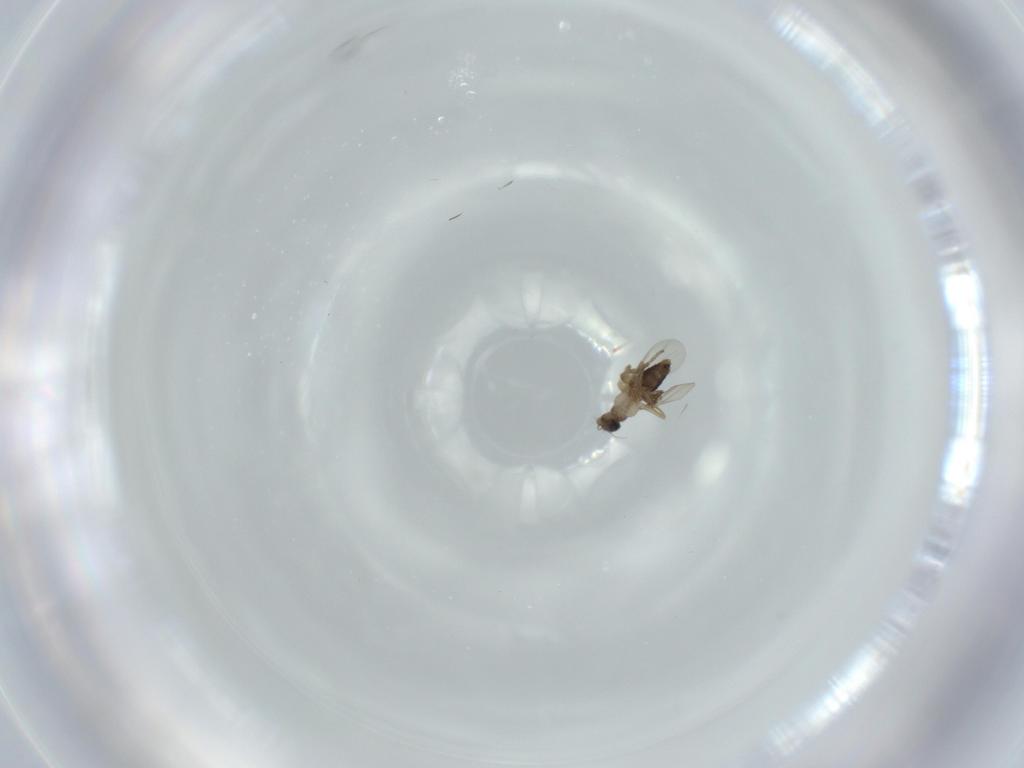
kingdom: Animalia
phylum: Arthropoda
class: Insecta
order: Diptera
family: Phoridae
